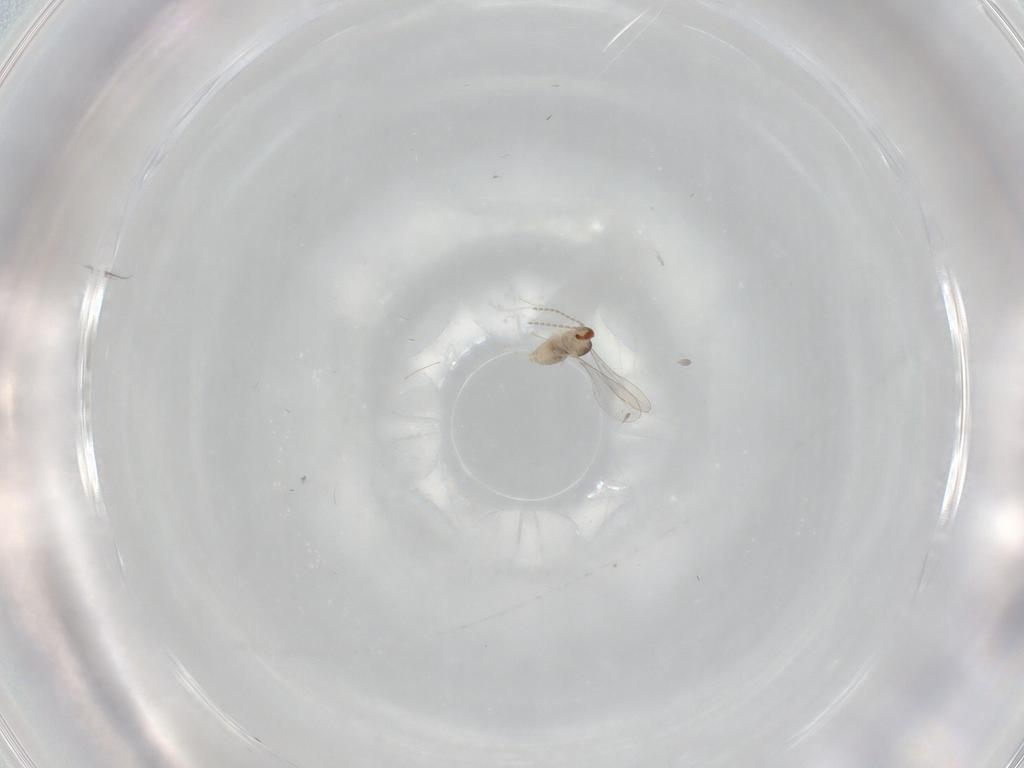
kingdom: Animalia
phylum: Arthropoda
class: Insecta
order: Diptera
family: Cecidomyiidae
